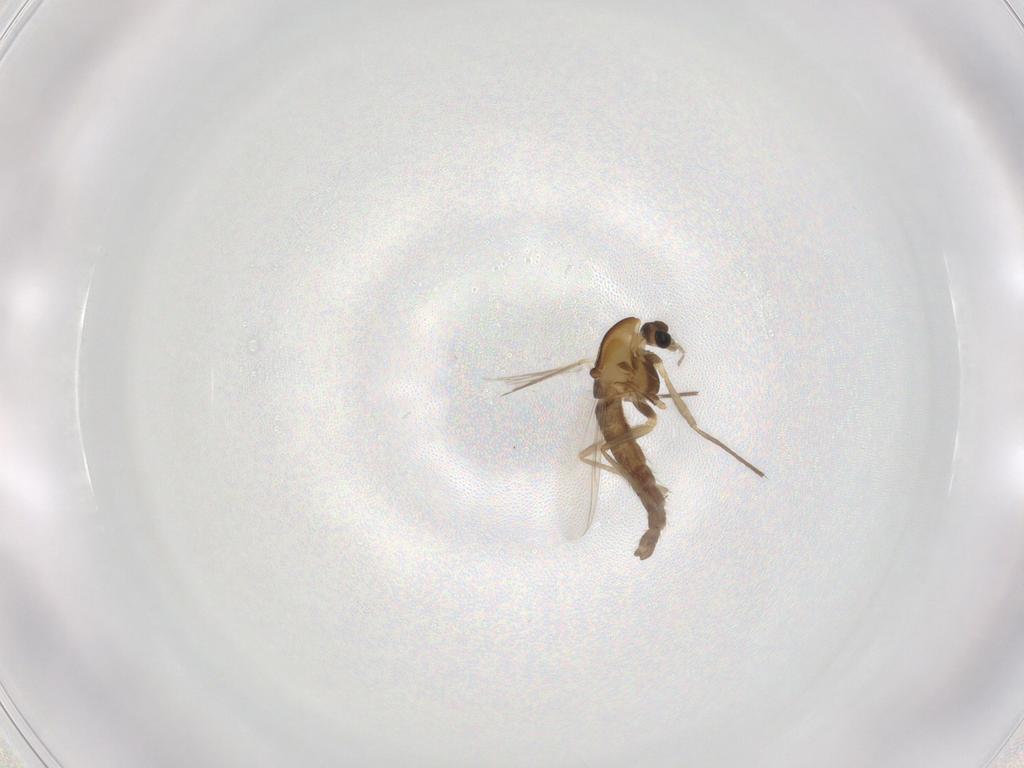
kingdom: Animalia
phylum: Arthropoda
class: Insecta
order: Diptera
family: Chironomidae
